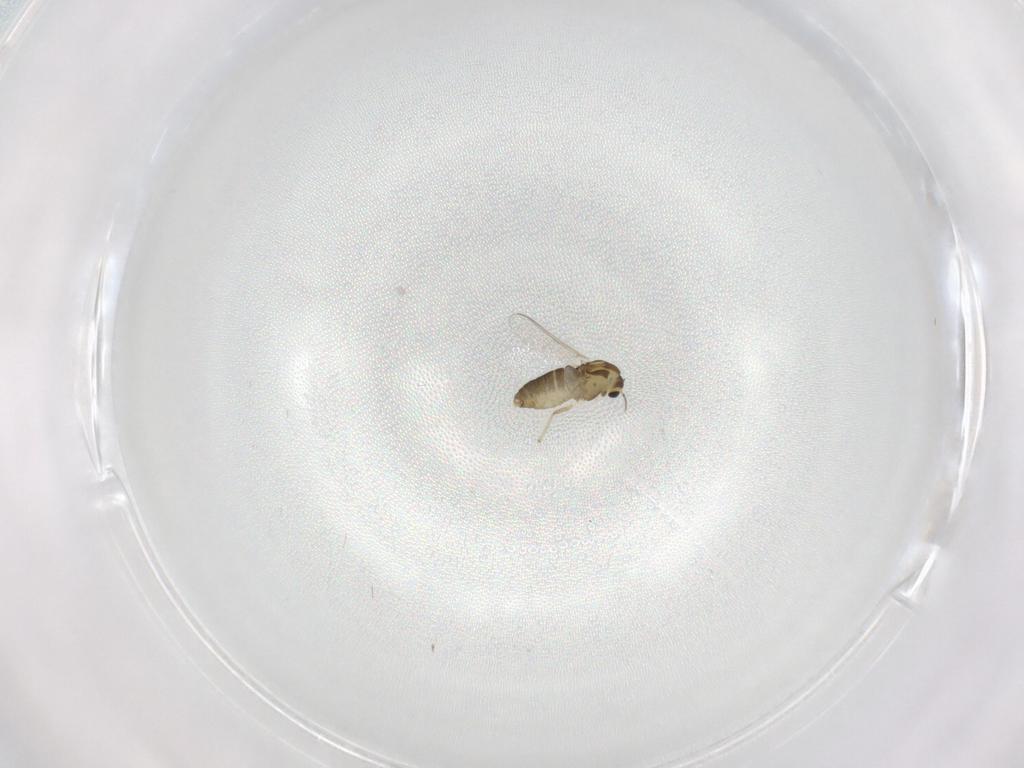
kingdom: Animalia
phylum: Arthropoda
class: Insecta
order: Diptera
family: Chironomidae
